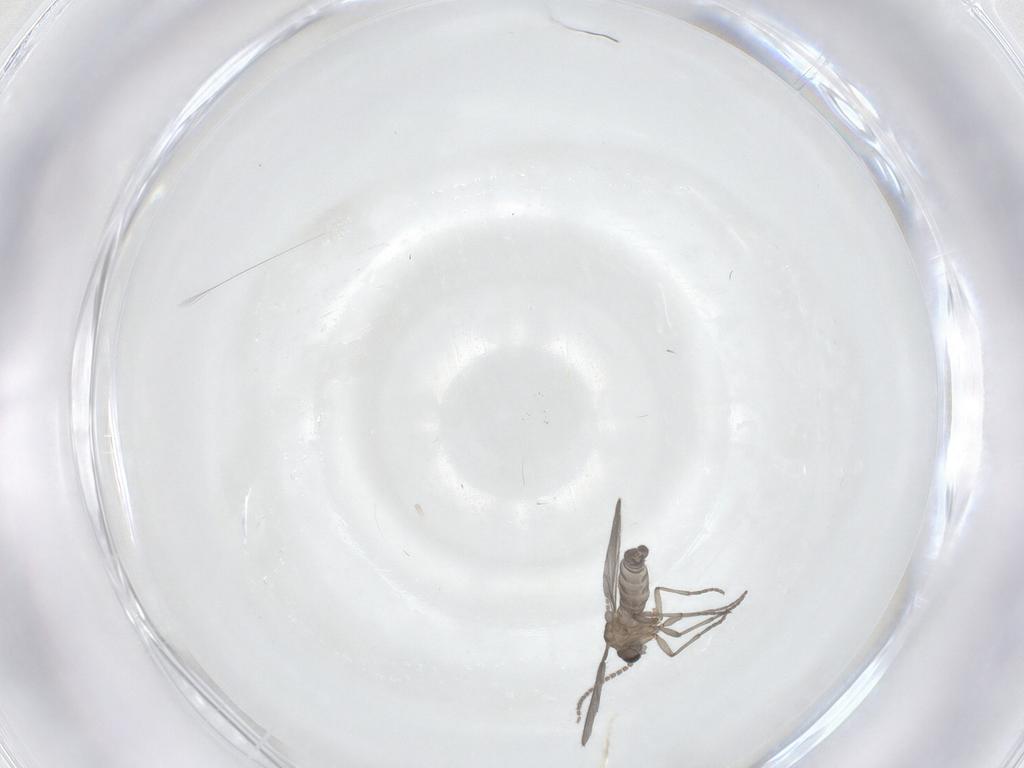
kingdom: Animalia
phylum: Arthropoda
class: Insecta
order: Diptera
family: Sciaridae
